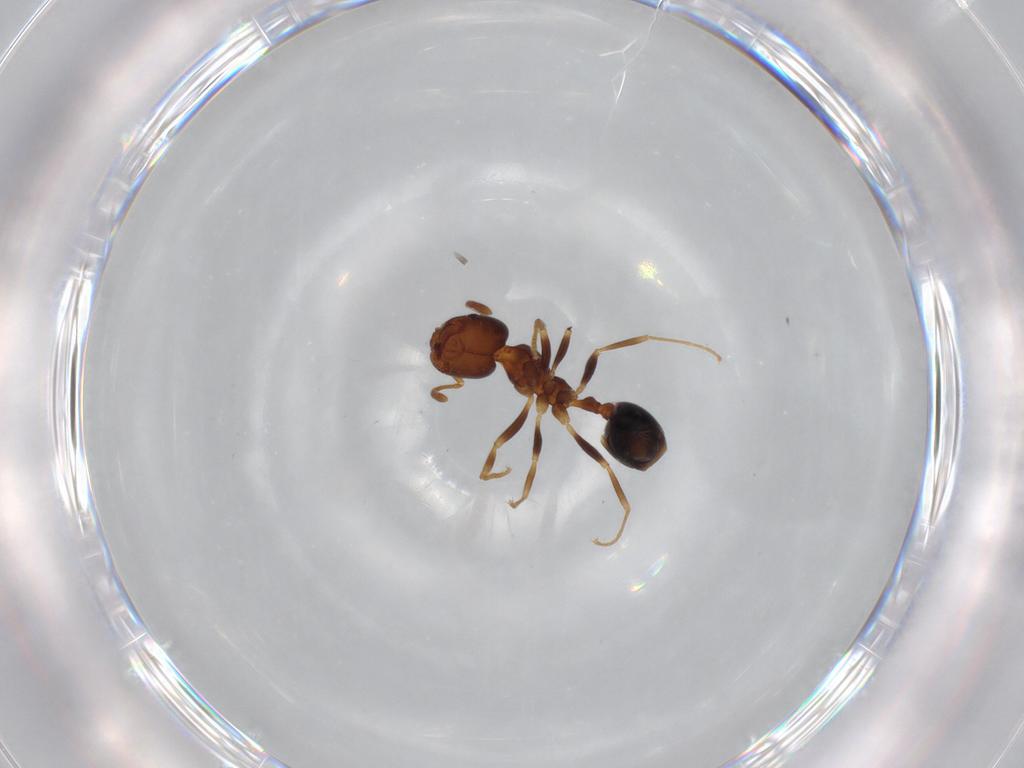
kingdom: Animalia
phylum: Arthropoda
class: Insecta
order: Hymenoptera
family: Formicidae
